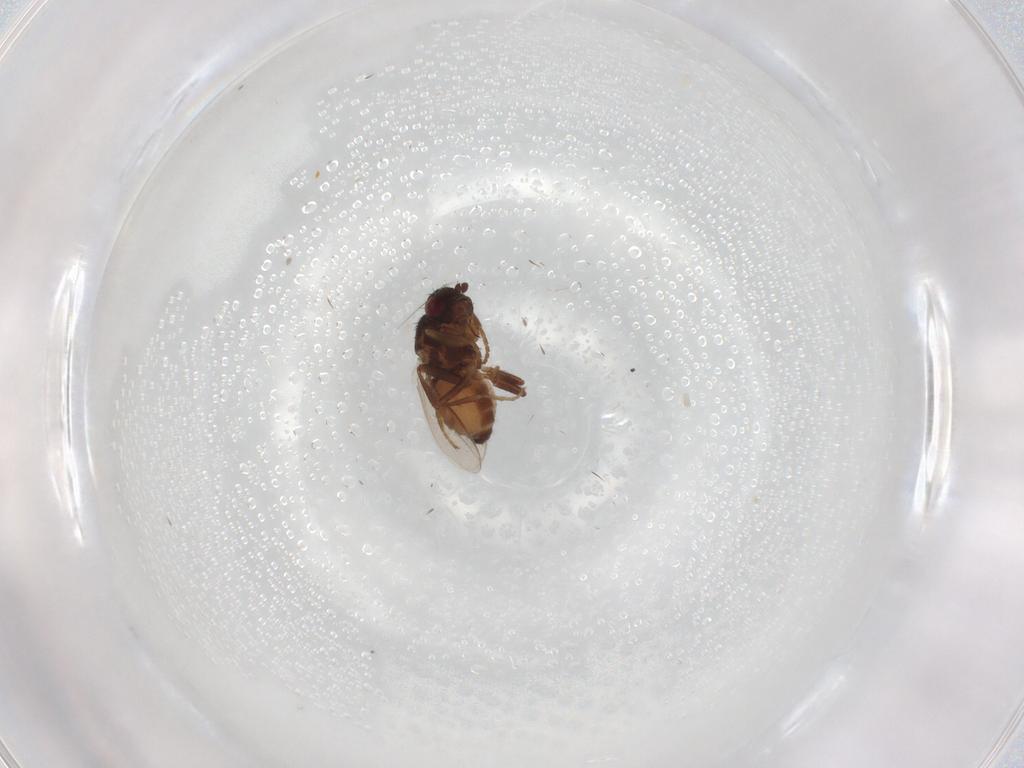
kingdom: Animalia
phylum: Arthropoda
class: Insecta
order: Diptera
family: Sphaeroceridae
